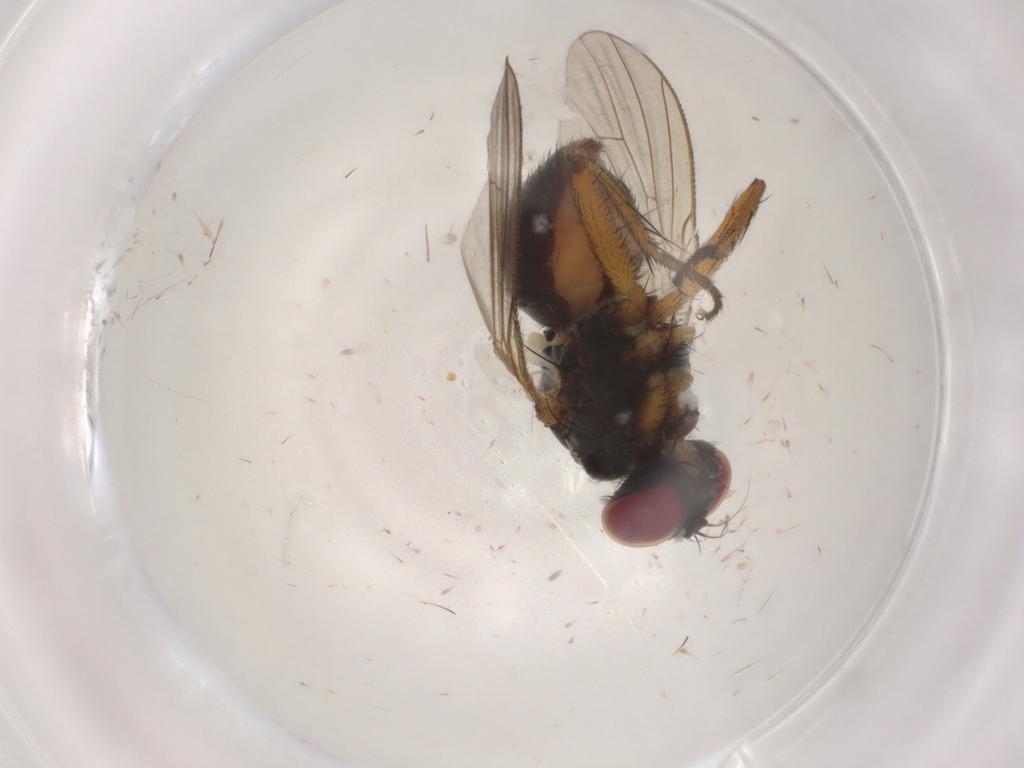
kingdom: Animalia
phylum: Arthropoda
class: Insecta
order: Diptera
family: Muscidae
